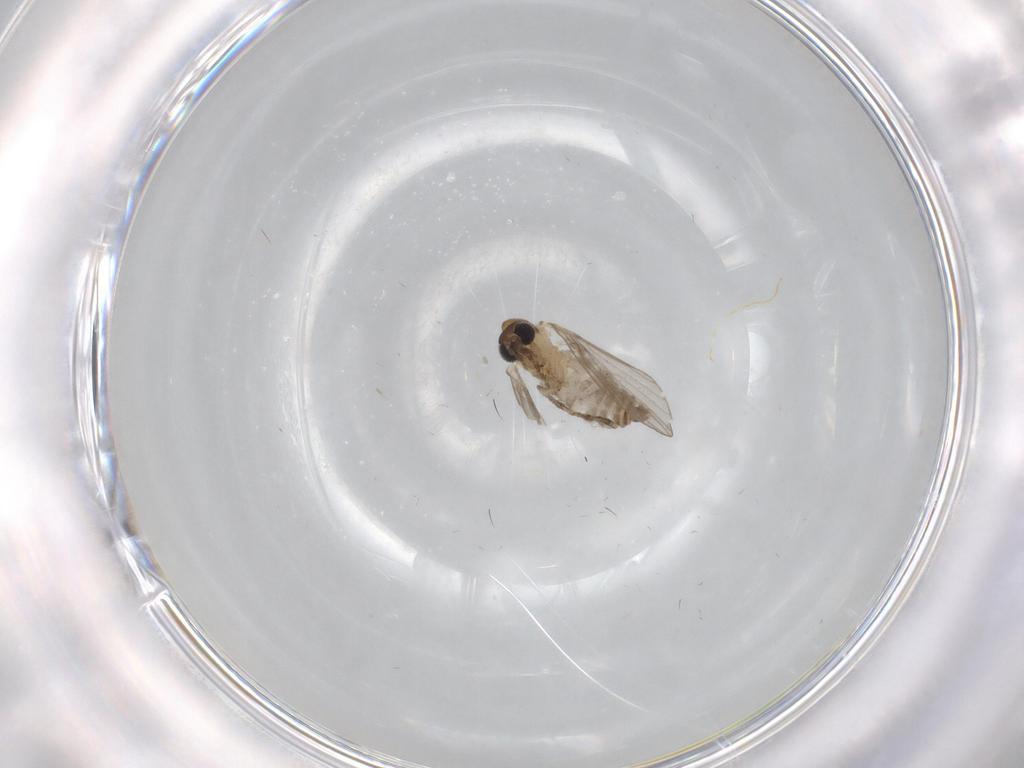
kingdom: Animalia
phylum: Arthropoda
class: Insecta
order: Diptera
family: Psychodidae
